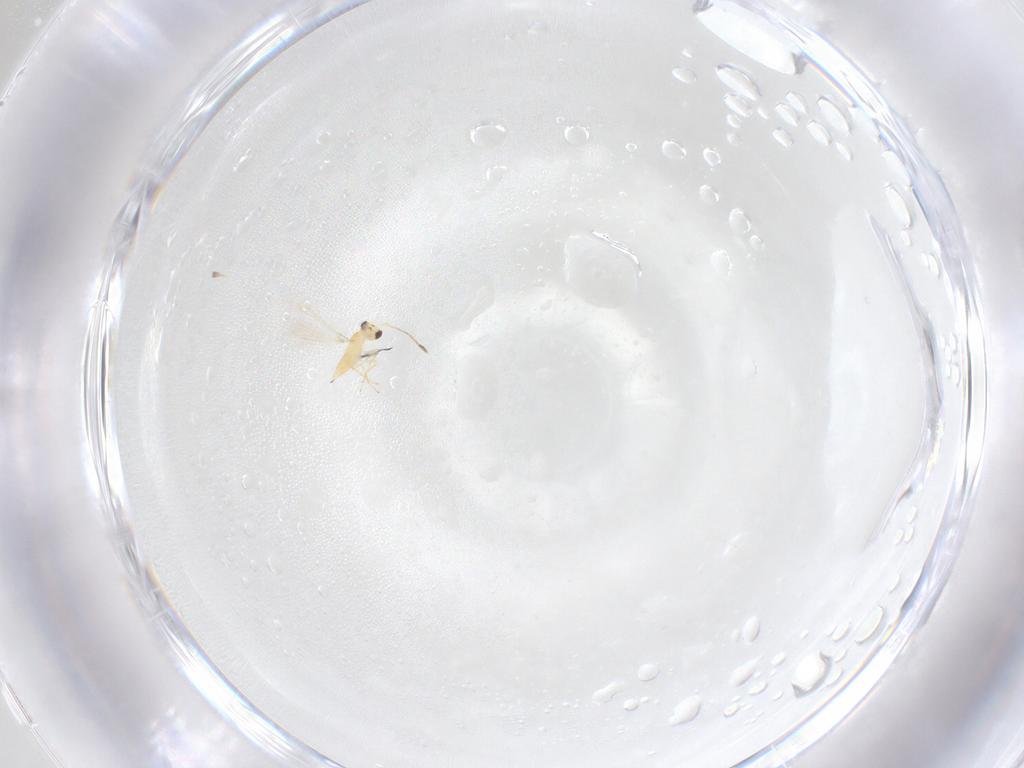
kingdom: Animalia
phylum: Arthropoda
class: Insecta
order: Hymenoptera
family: Mymaridae
